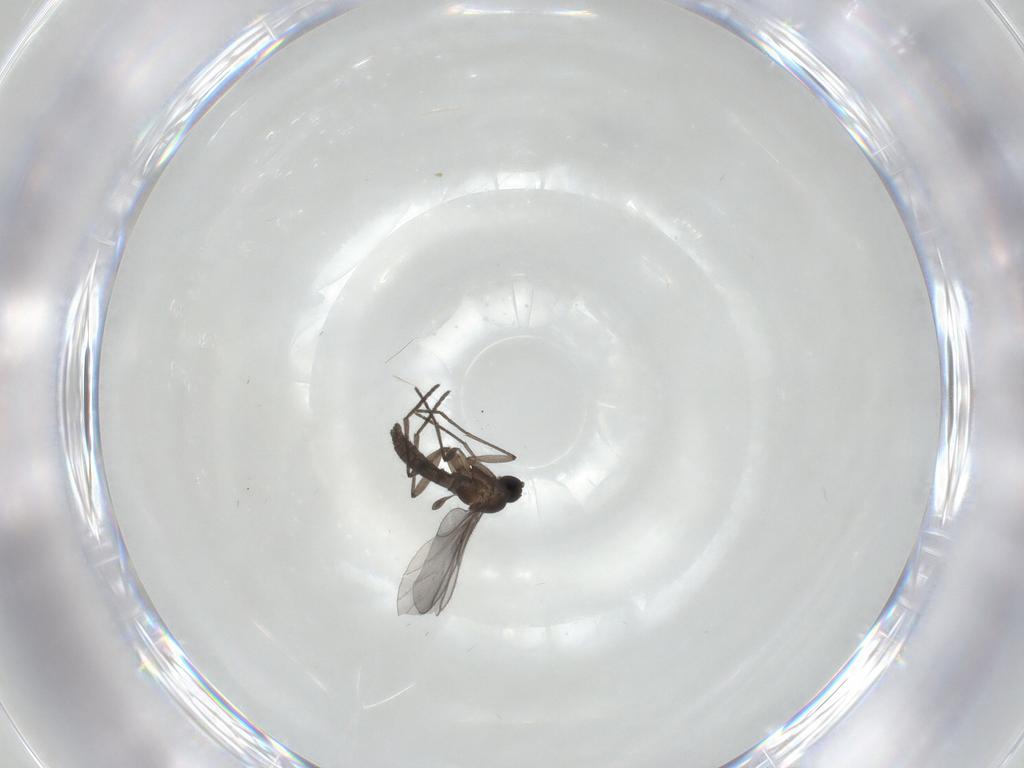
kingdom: Animalia
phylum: Arthropoda
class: Insecta
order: Diptera
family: Sciaridae
